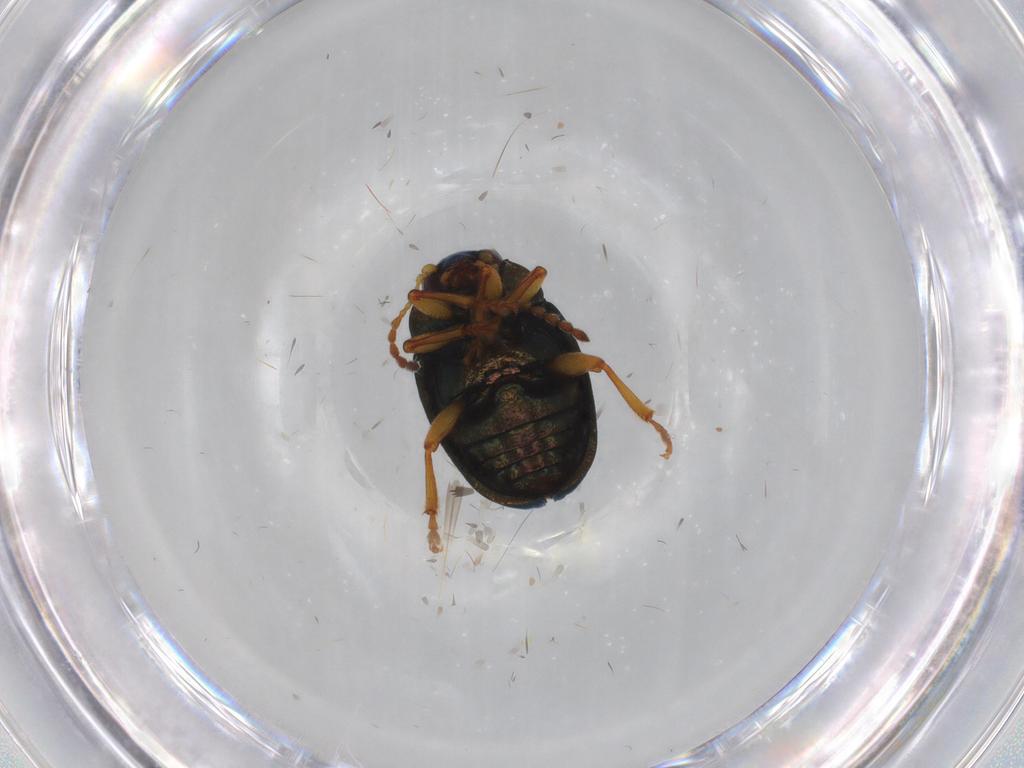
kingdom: Animalia
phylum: Arthropoda
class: Insecta
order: Coleoptera
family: Chrysomelidae
